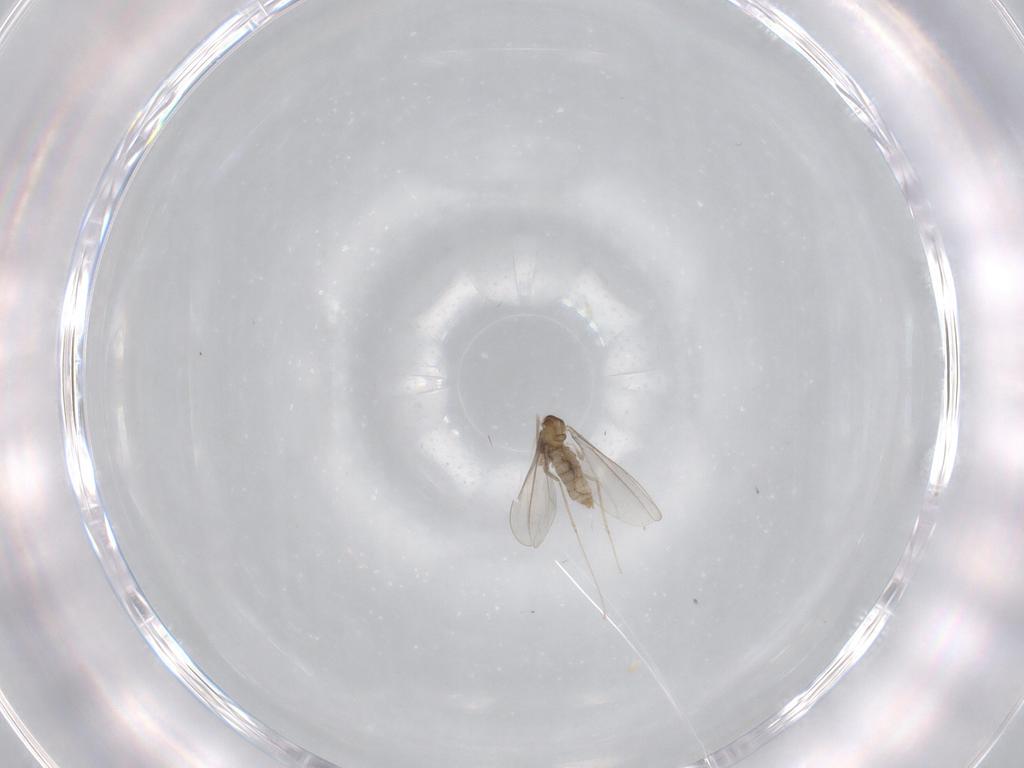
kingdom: Animalia
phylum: Arthropoda
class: Insecta
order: Diptera
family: Cecidomyiidae
